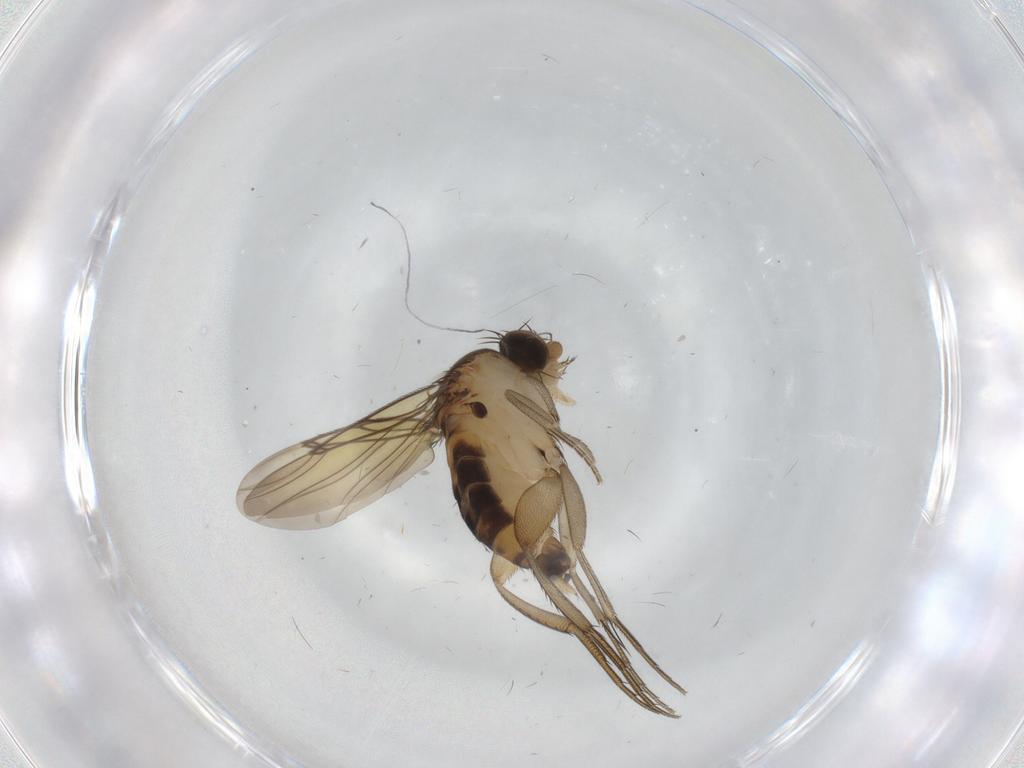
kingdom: Animalia
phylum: Arthropoda
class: Insecta
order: Diptera
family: Cecidomyiidae
